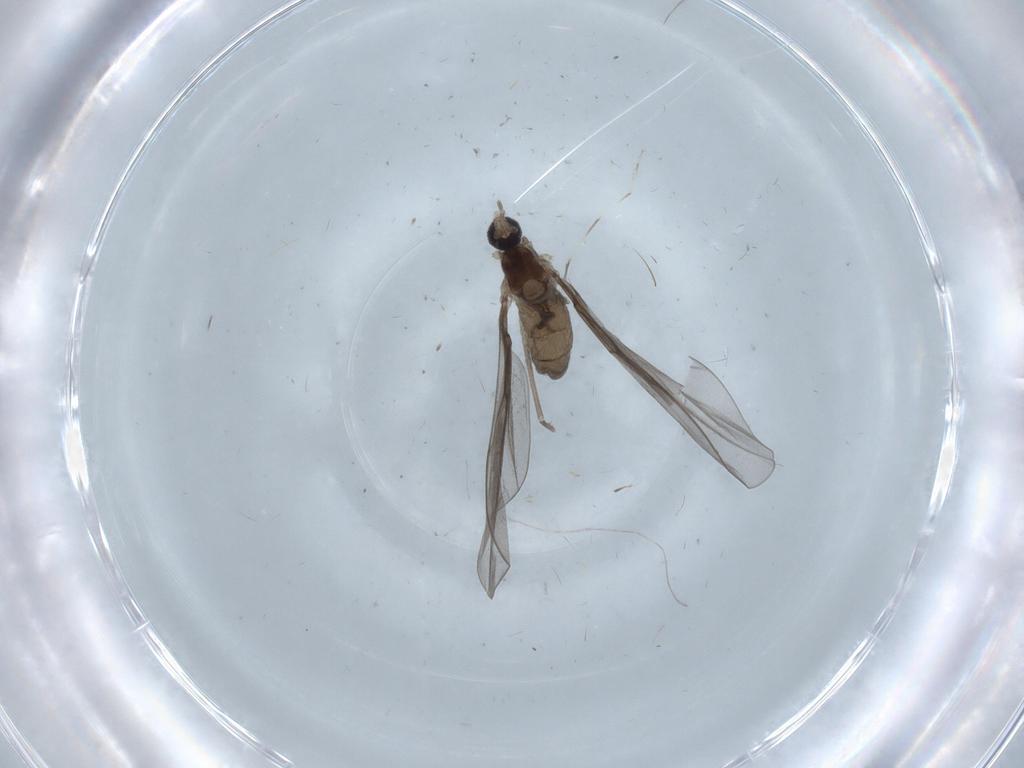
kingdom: Animalia
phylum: Arthropoda
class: Insecta
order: Diptera
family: Cecidomyiidae
